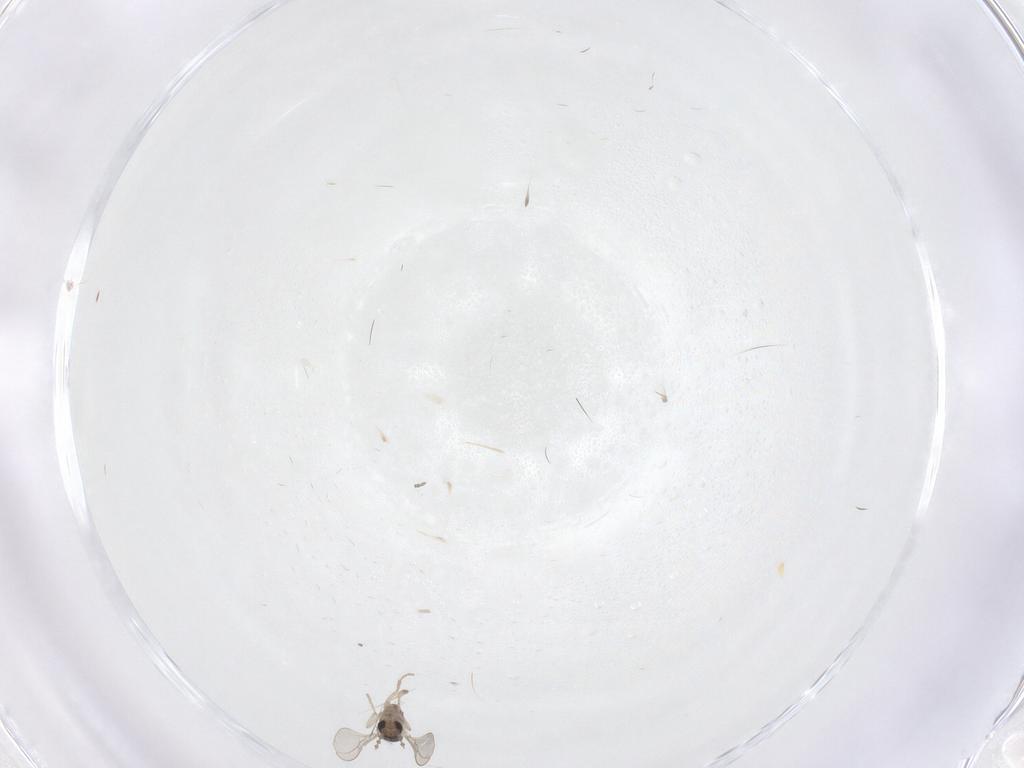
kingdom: Animalia
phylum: Arthropoda
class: Insecta
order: Diptera
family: Cecidomyiidae
